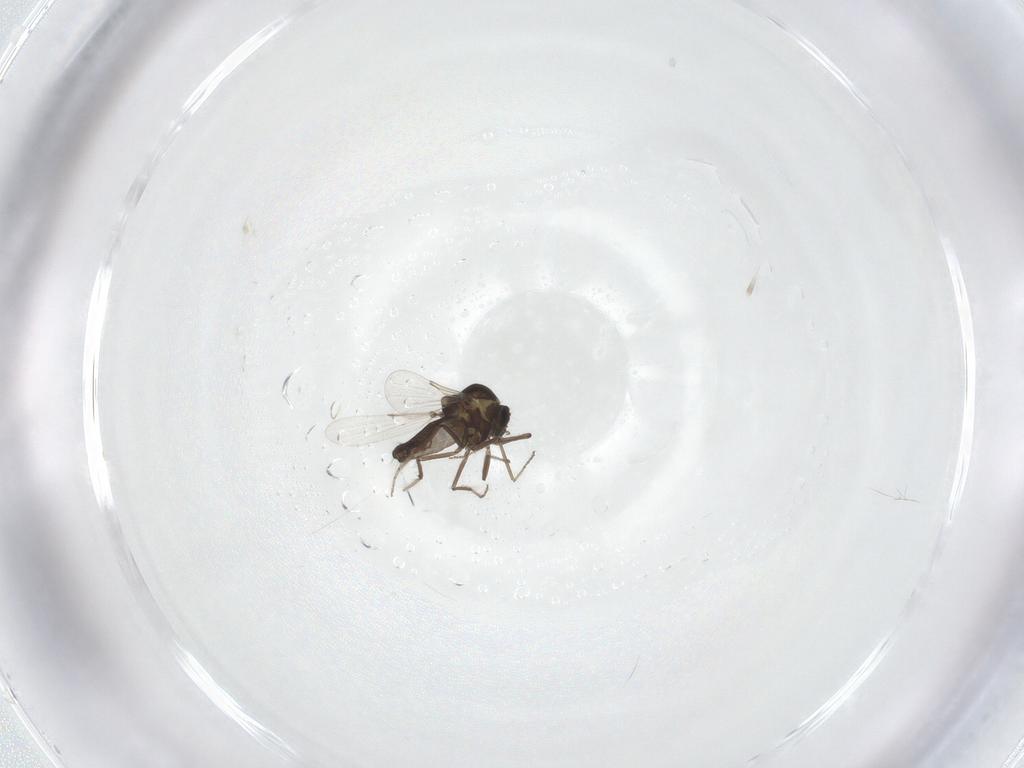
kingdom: Animalia
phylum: Arthropoda
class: Insecta
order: Diptera
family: Ceratopogonidae
